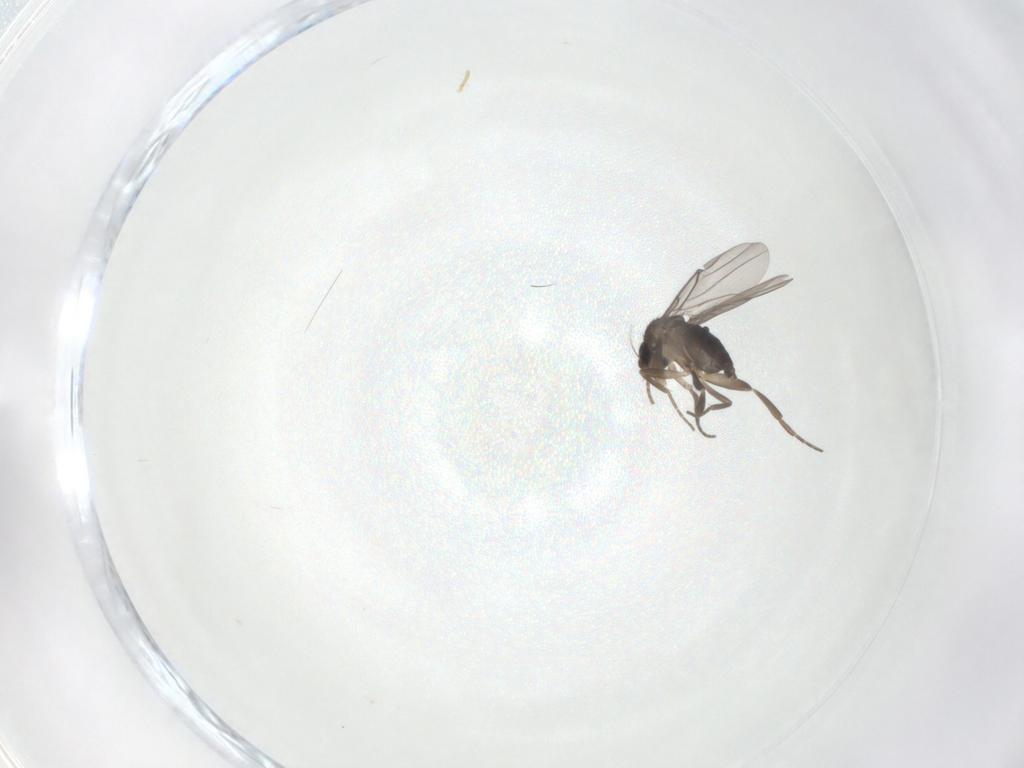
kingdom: Animalia
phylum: Arthropoda
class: Insecta
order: Diptera
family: Phoridae
